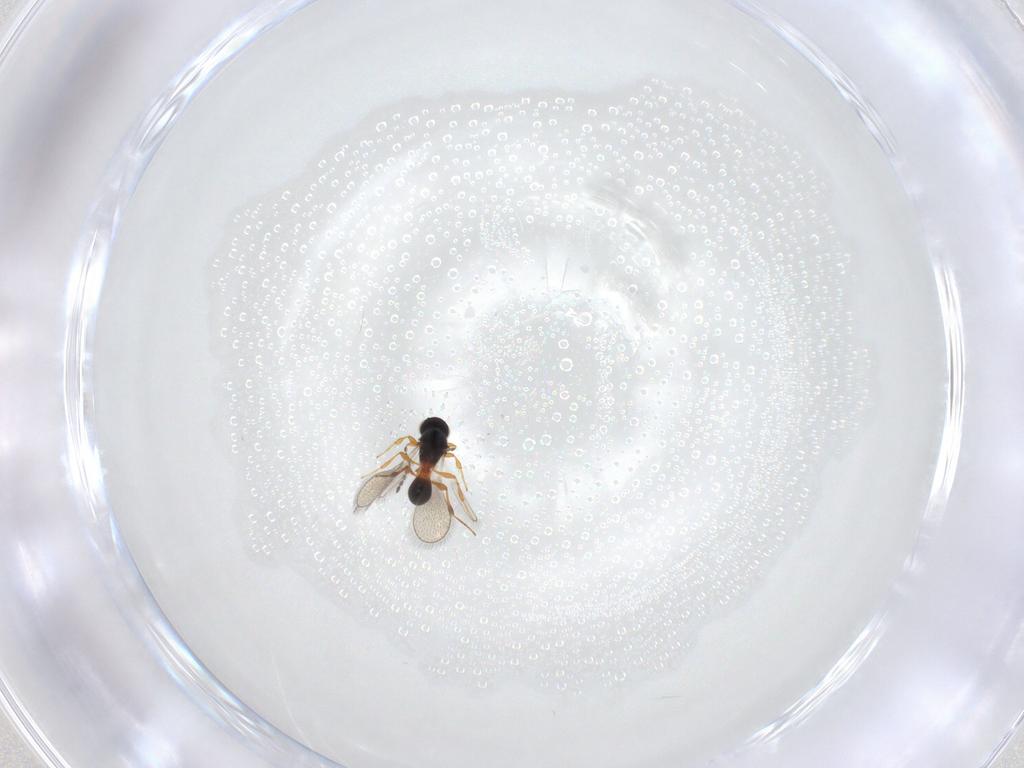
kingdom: Animalia
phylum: Arthropoda
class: Insecta
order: Hymenoptera
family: Platygastridae
